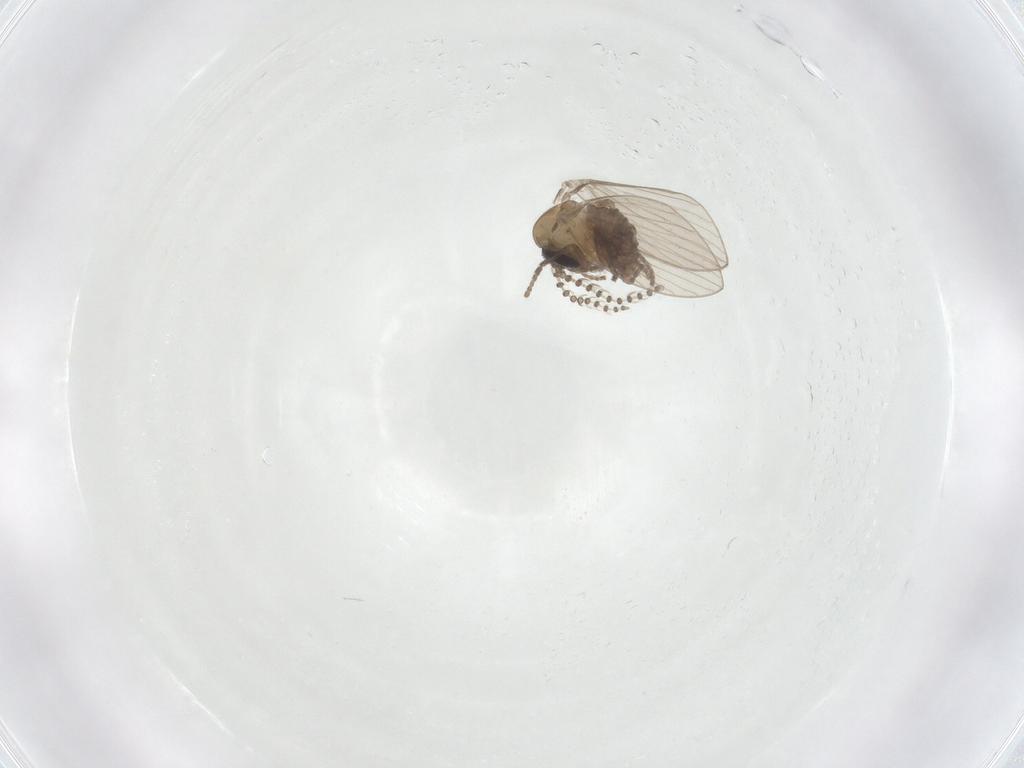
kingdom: Animalia
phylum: Arthropoda
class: Insecta
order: Diptera
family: Psychodidae
